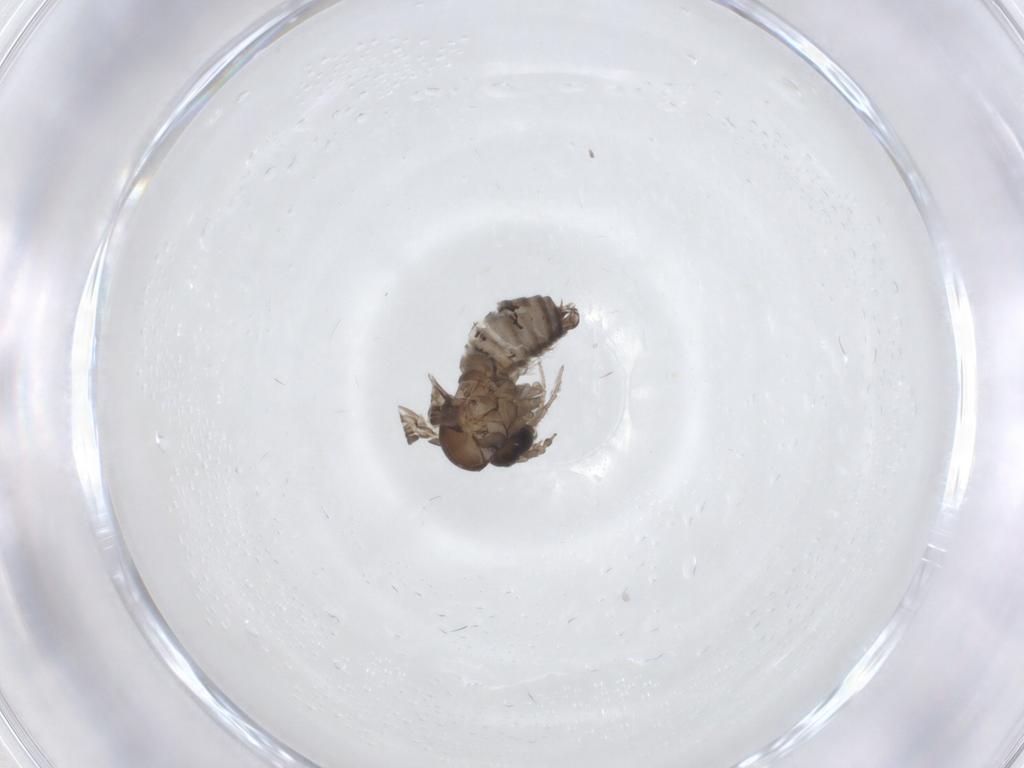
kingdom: Animalia
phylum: Arthropoda
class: Insecta
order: Diptera
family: Psychodidae
